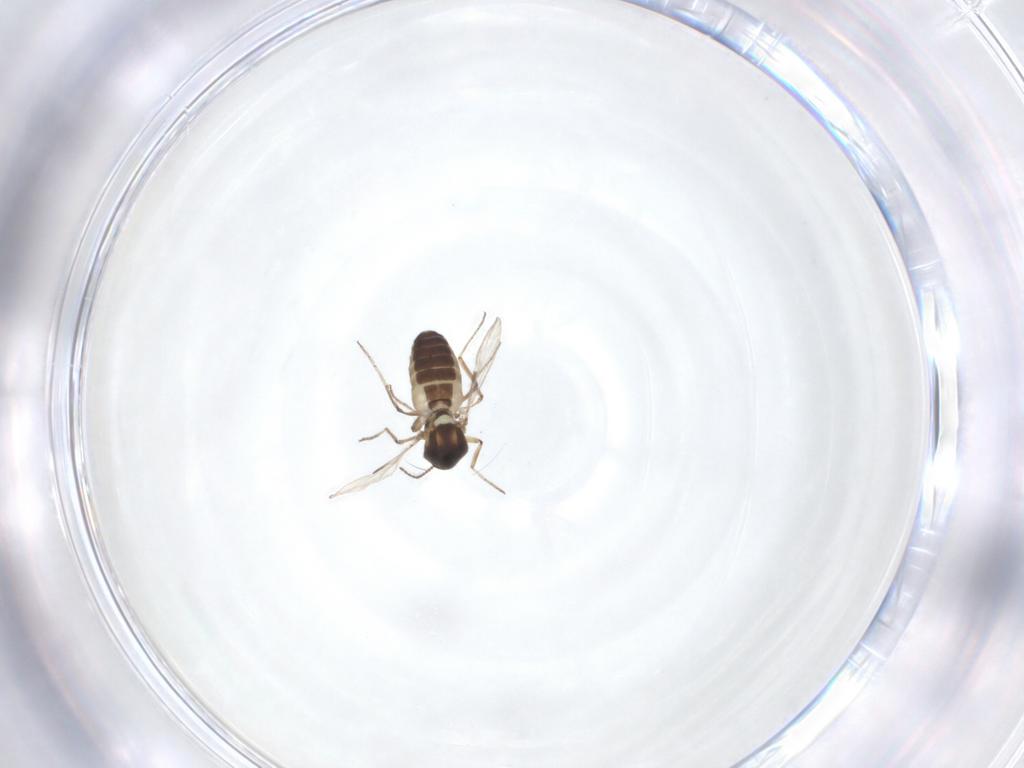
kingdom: Animalia
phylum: Arthropoda
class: Insecta
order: Diptera
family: Ceratopogonidae
